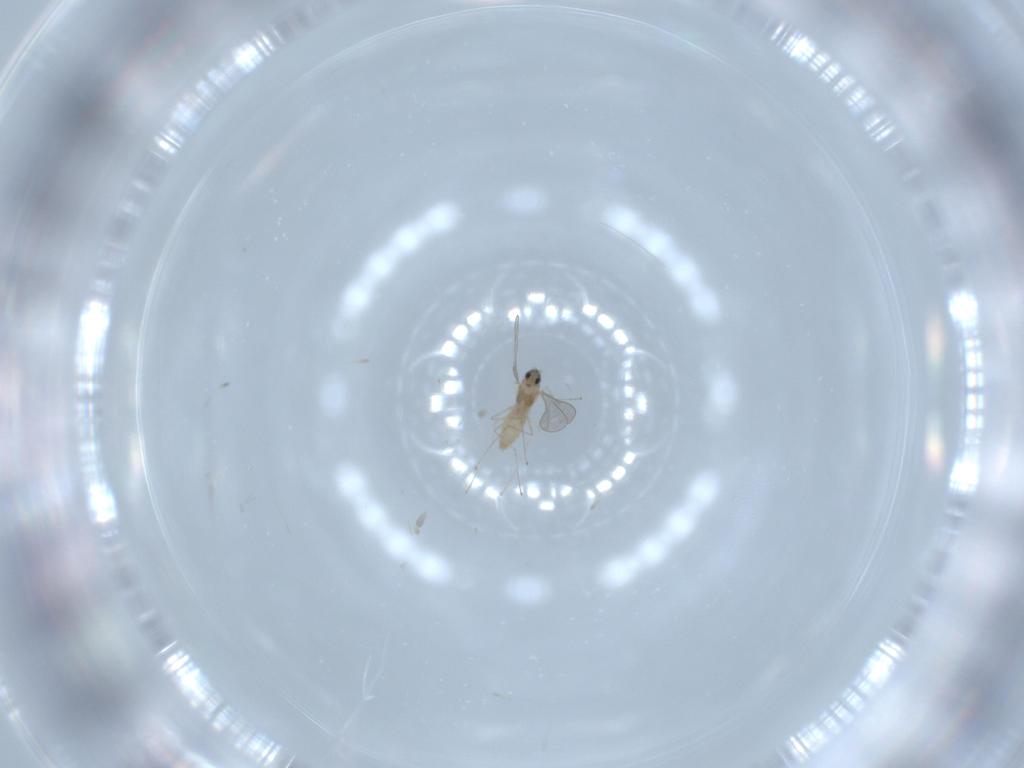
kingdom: Animalia
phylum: Arthropoda
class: Insecta
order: Diptera
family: Cecidomyiidae
